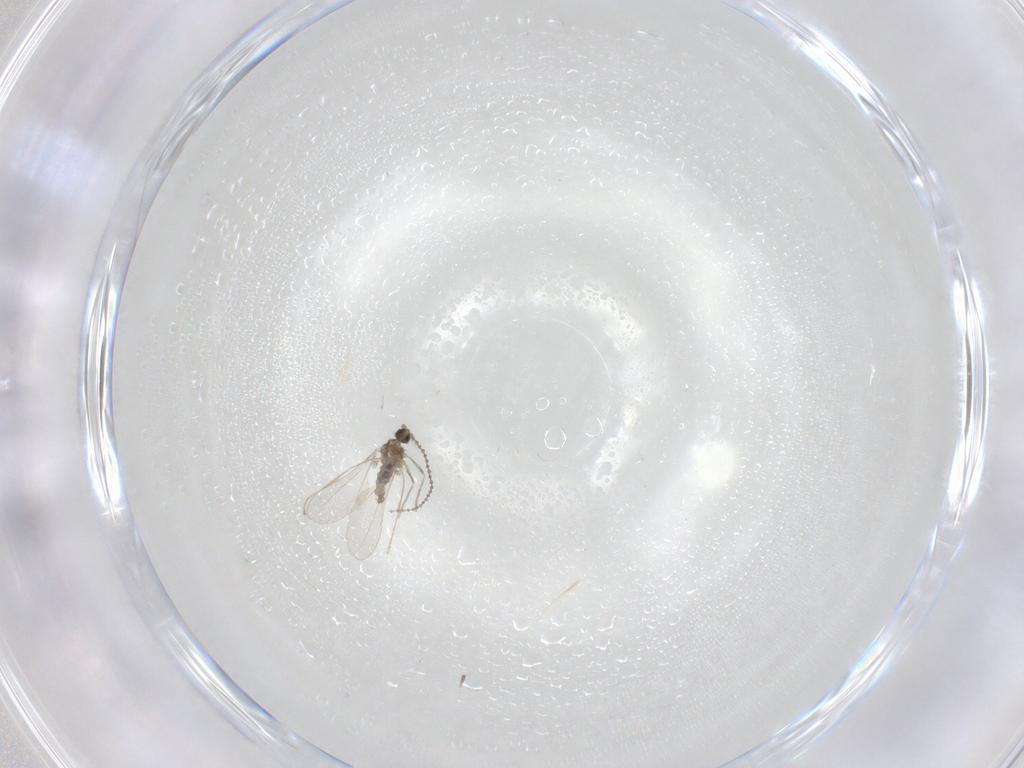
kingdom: Animalia
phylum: Arthropoda
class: Insecta
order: Diptera
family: Cecidomyiidae
